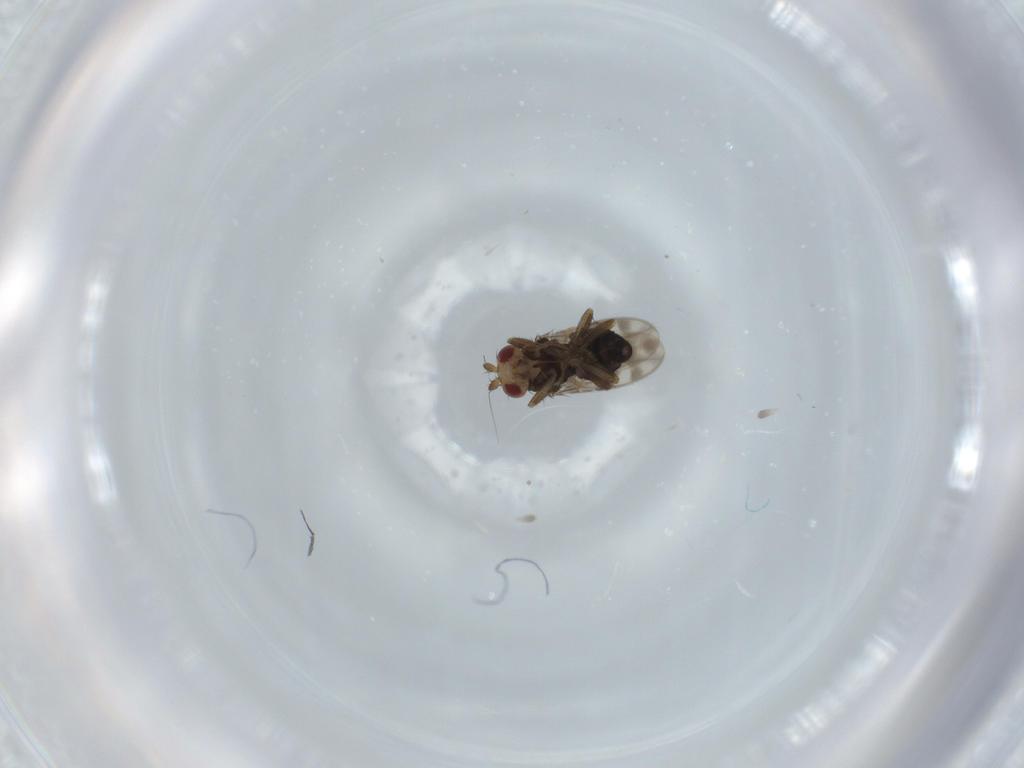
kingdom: Animalia
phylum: Arthropoda
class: Insecta
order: Diptera
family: Sphaeroceridae
